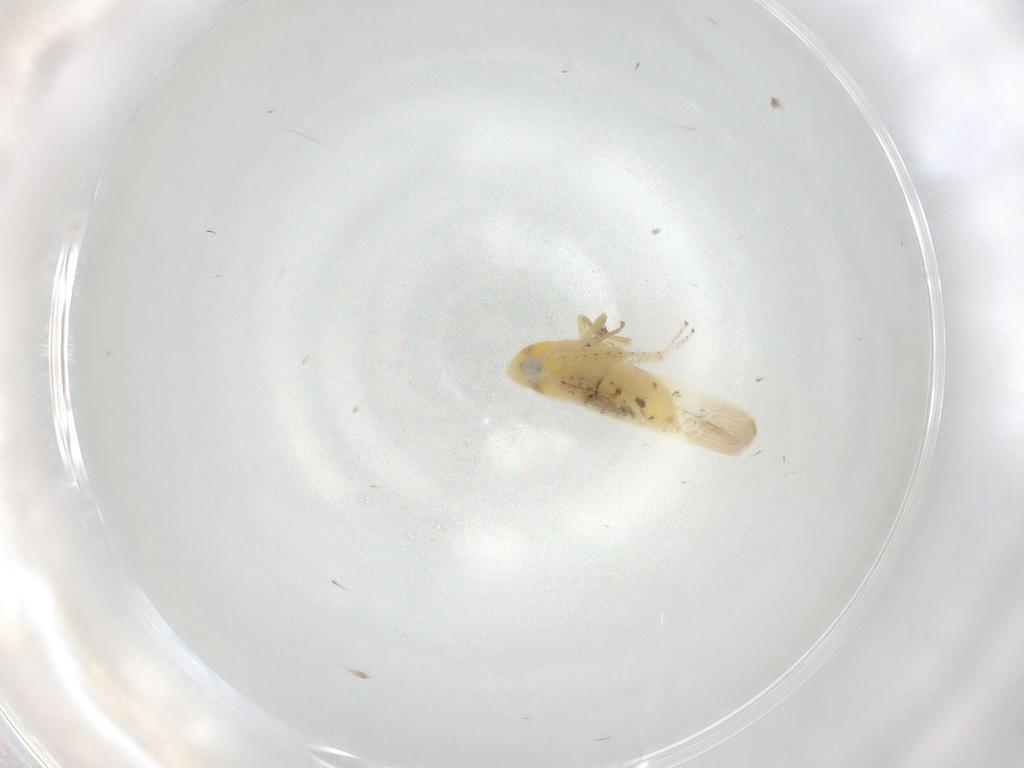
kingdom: Animalia
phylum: Arthropoda
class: Insecta
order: Hemiptera
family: Cicadellidae
